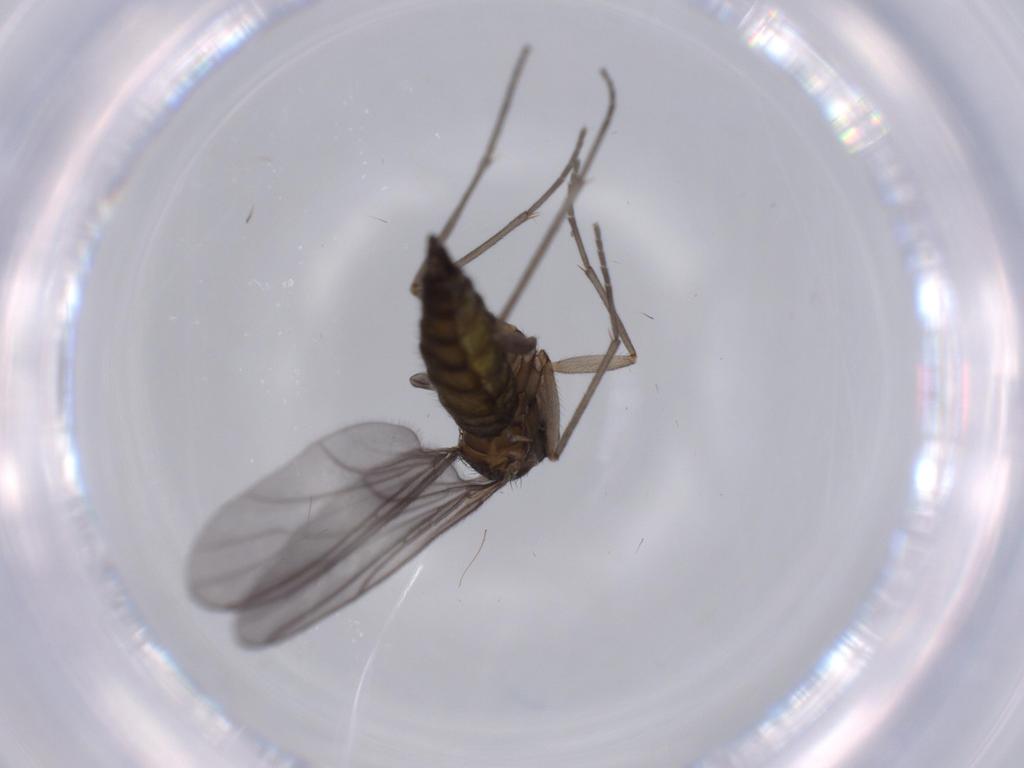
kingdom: Animalia
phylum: Arthropoda
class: Insecta
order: Diptera
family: Sciaridae
